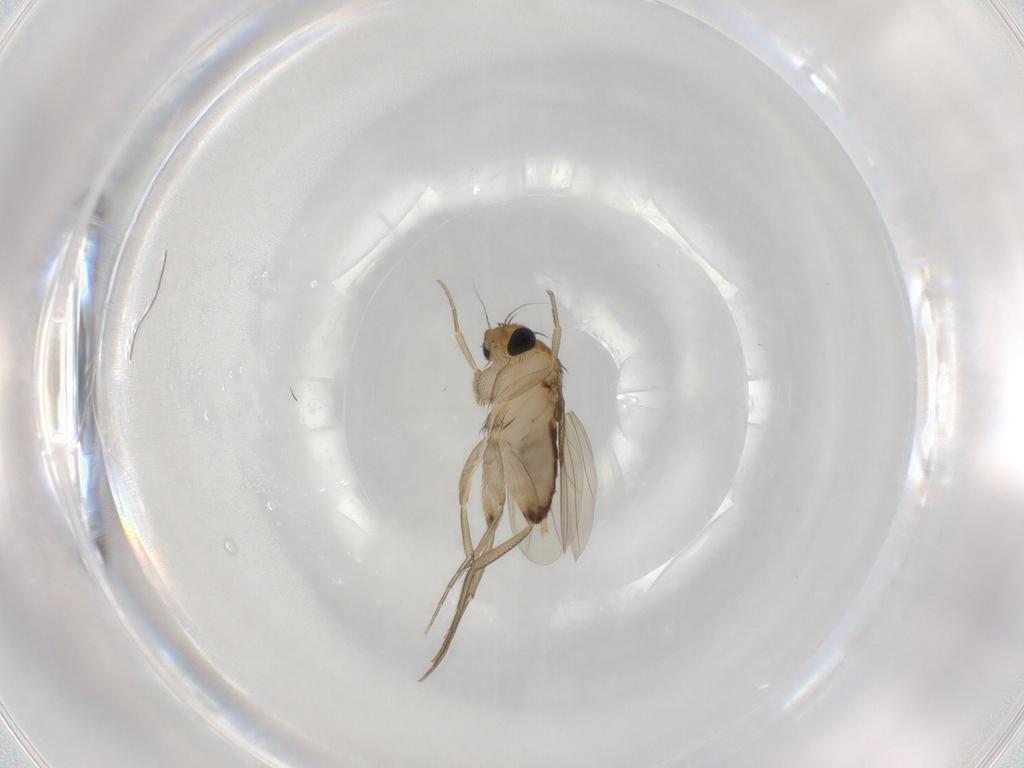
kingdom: Animalia
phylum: Arthropoda
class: Insecta
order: Diptera
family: Phoridae
